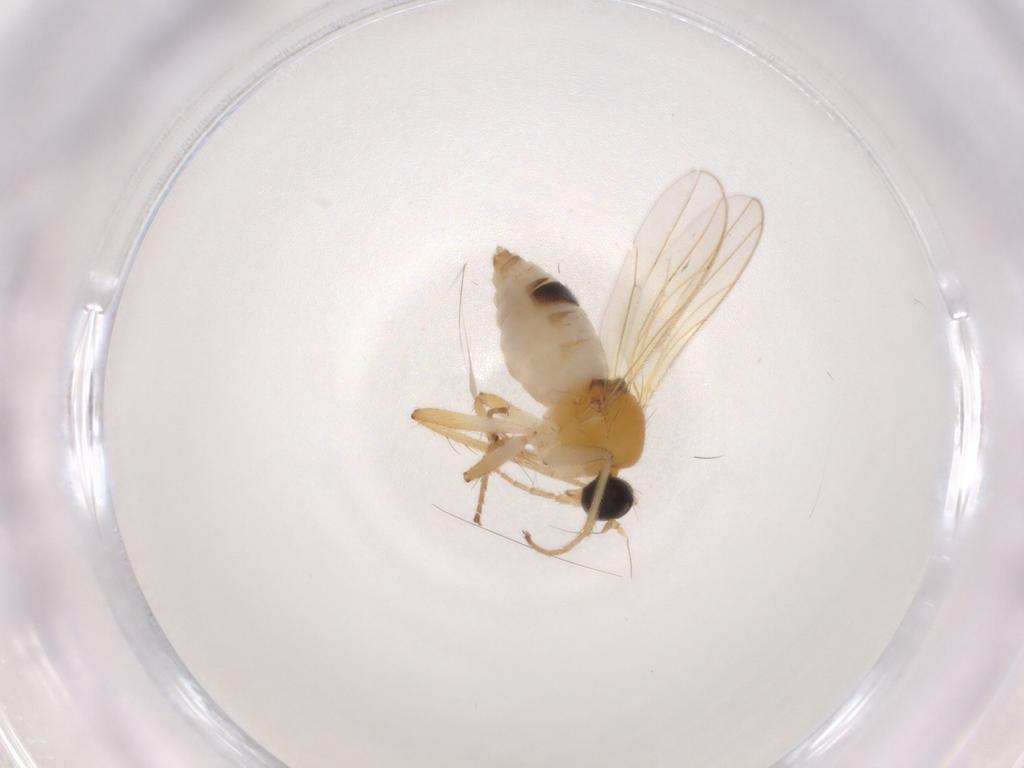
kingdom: Animalia
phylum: Arthropoda
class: Insecta
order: Diptera
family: Hybotidae
